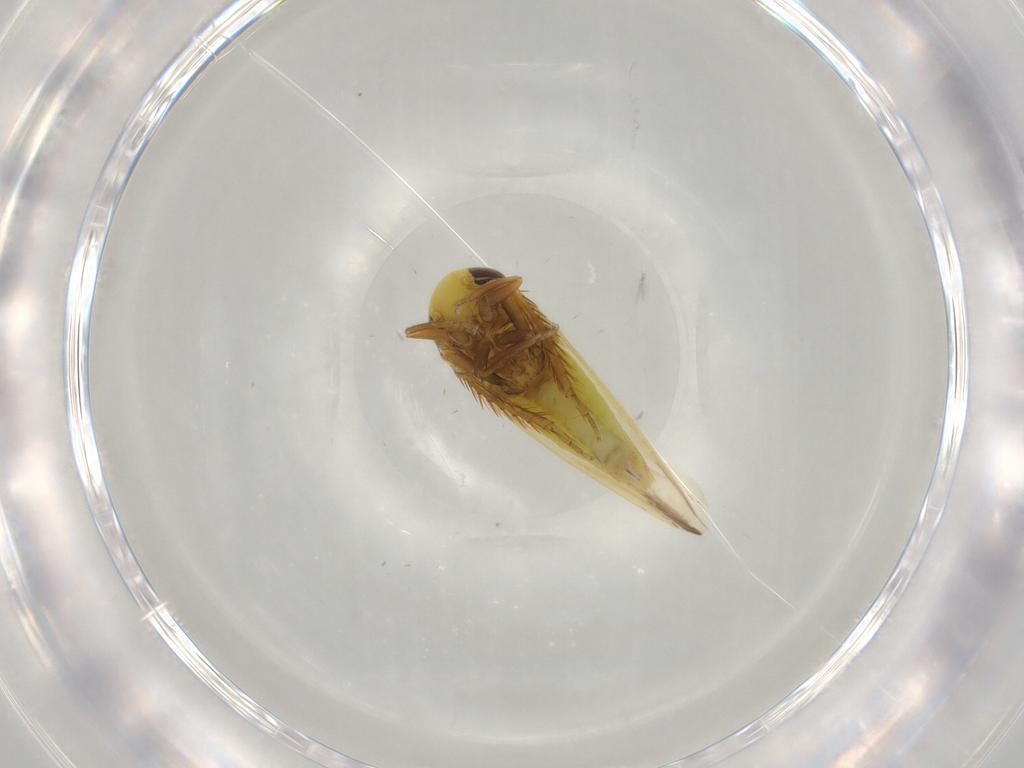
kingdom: Animalia
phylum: Arthropoda
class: Insecta
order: Hemiptera
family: Cicadellidae
